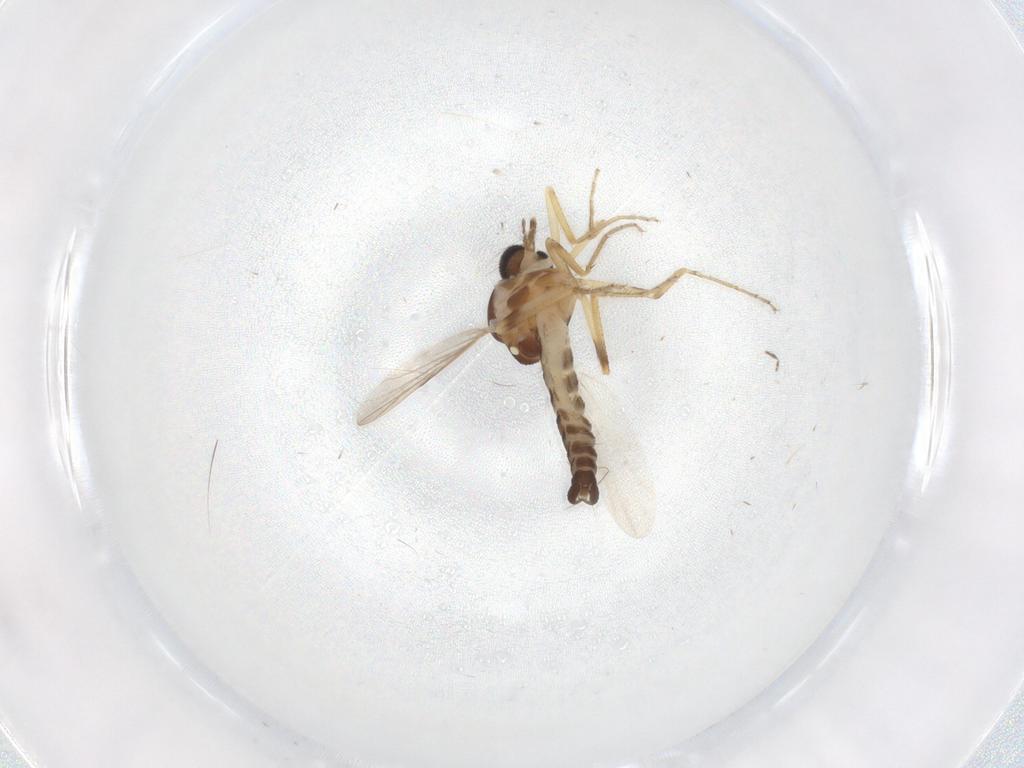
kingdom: Animalia
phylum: Arthropoda
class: Insecta
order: Diptera
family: Ceratopogonidae
